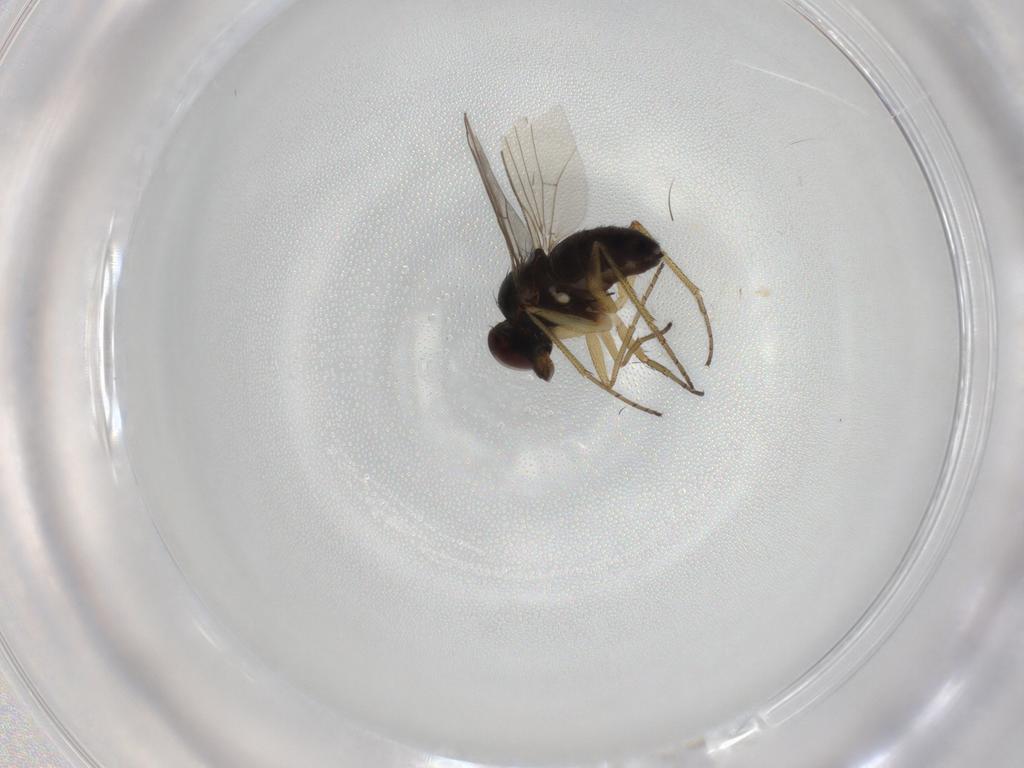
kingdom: Animalia
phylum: Arthropoda
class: Insecta
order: Diptera
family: Dolichopodidae
